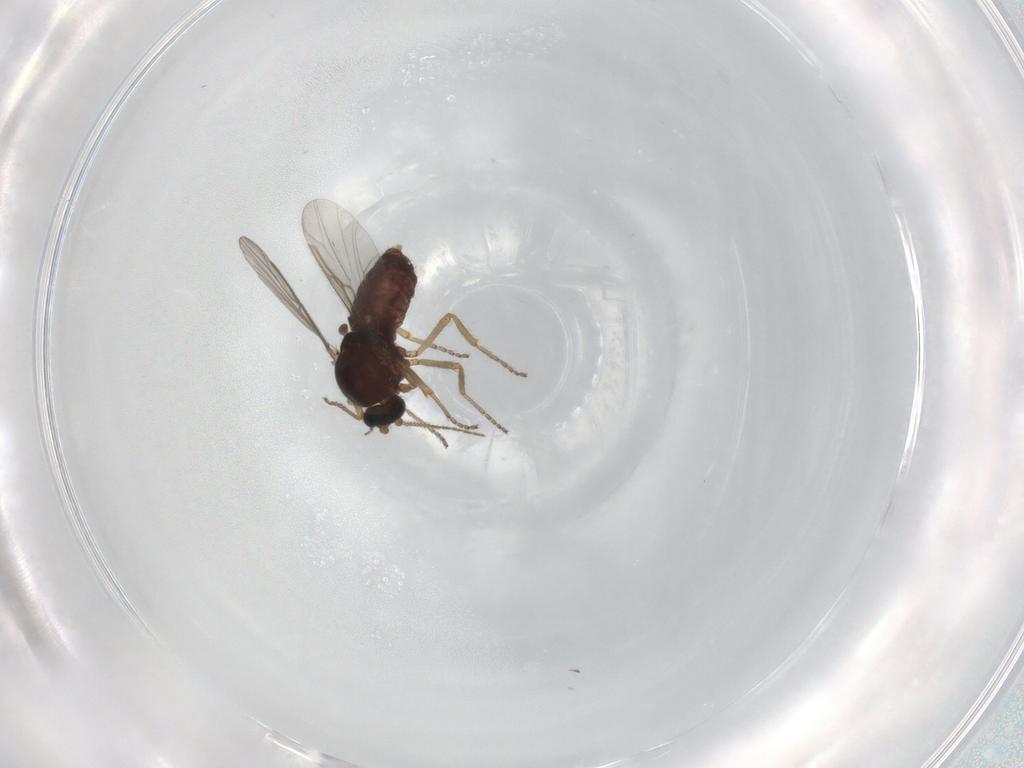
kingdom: Animalia
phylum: Arthropoda
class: Insecta
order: Diptera
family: Ceratopogonidae
